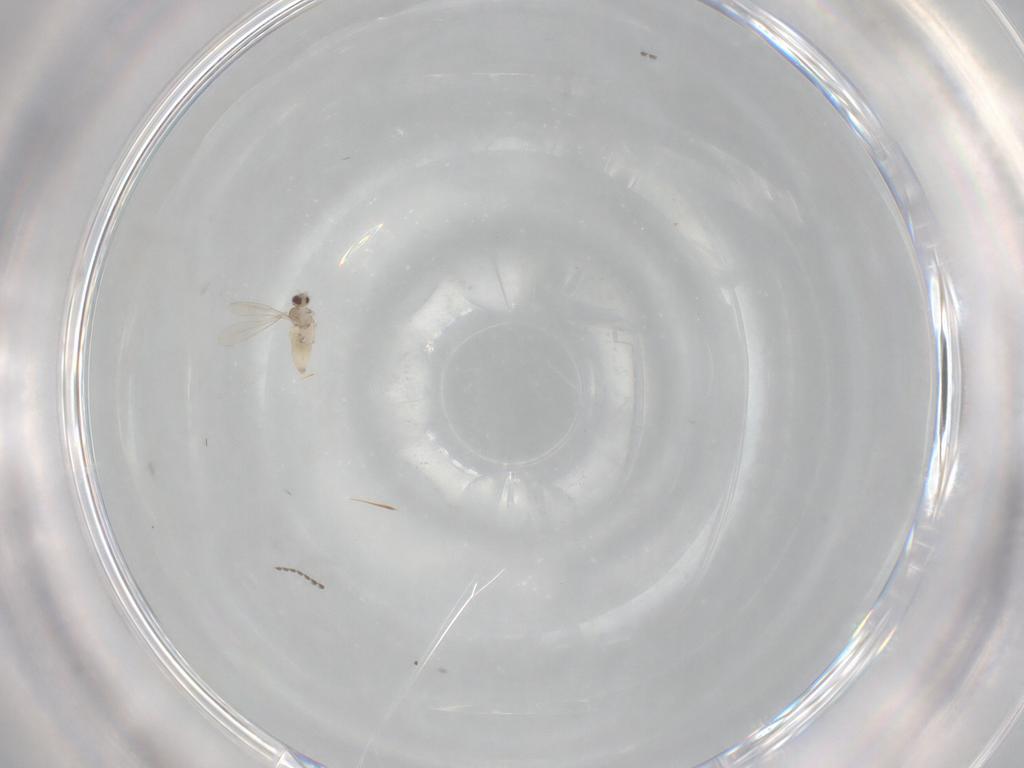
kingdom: Animalia
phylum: Arthropoda
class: Insecta
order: Diptera
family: Cecidomyiidae
